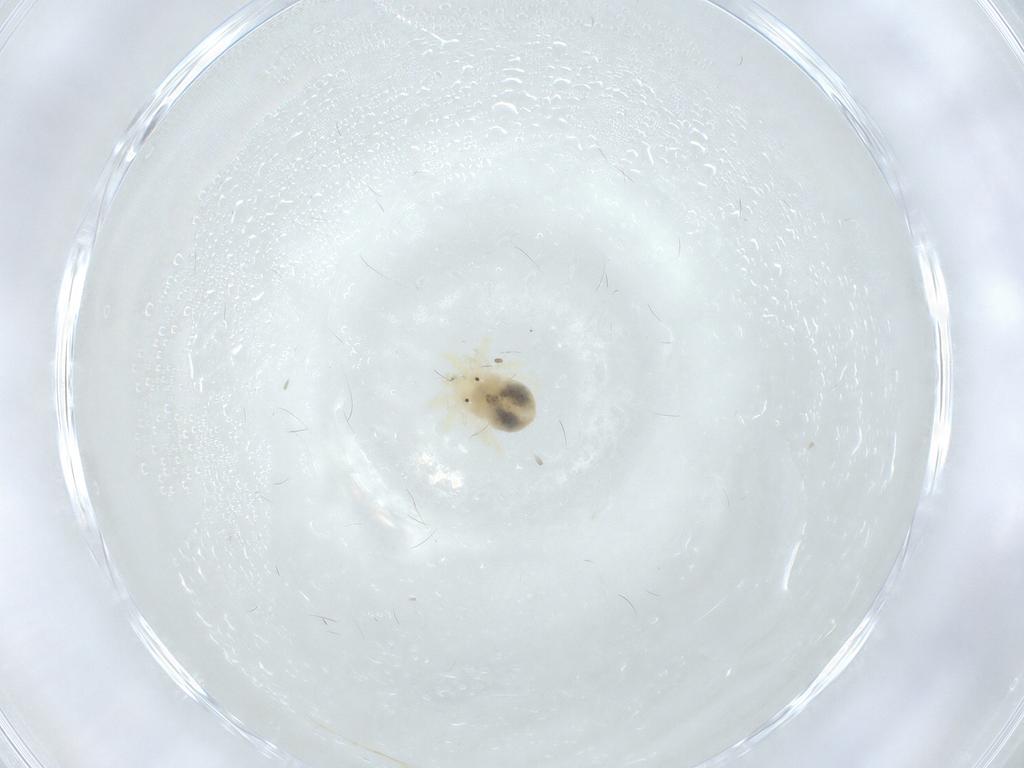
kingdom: Animalia
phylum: Arthropoda
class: Arachnida
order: Trombidiformes
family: Anystidae
